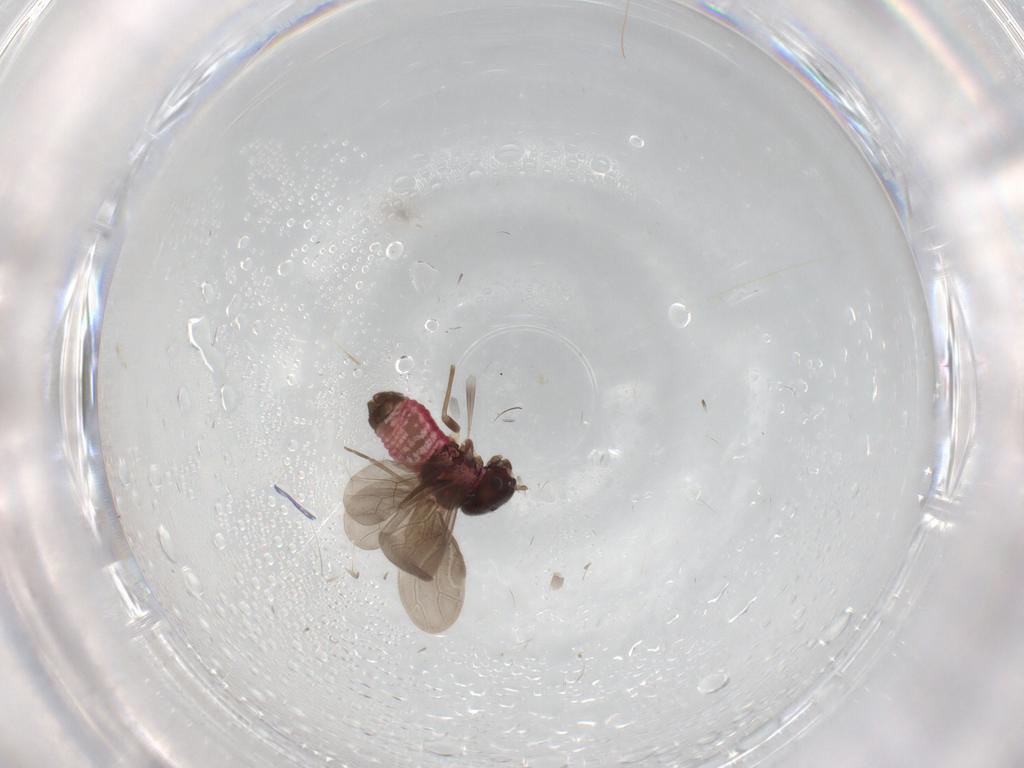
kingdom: Animalia
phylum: Arthropoda
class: Insecta
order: Psocodea
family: Archipsocidae
